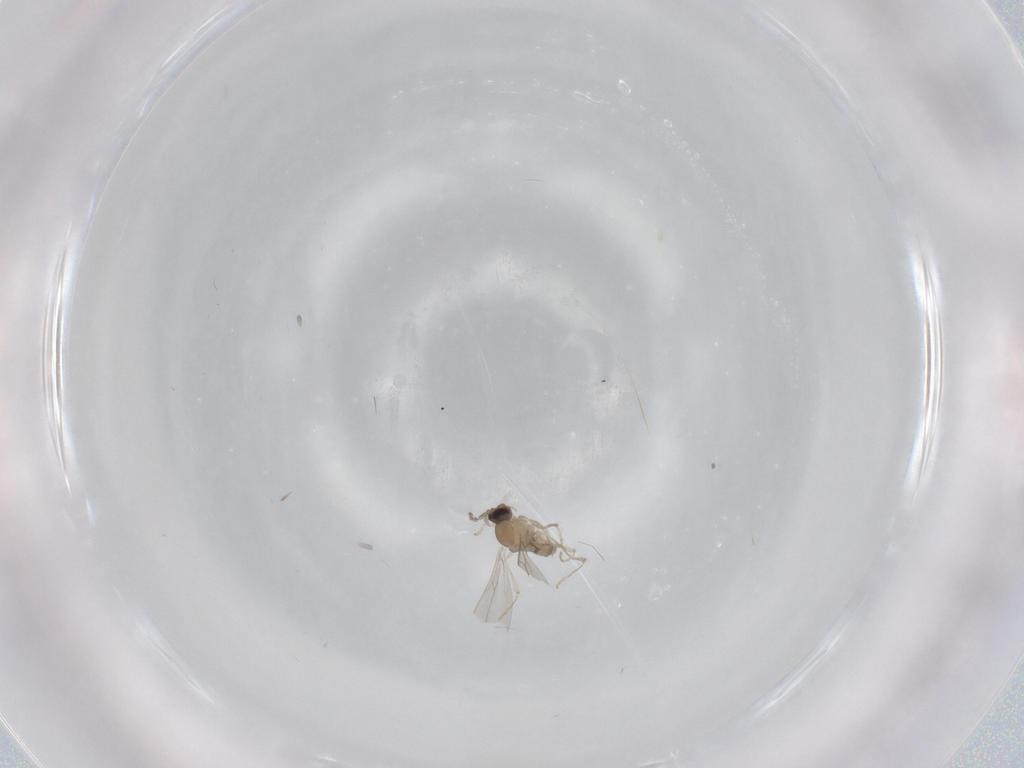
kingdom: Animalia
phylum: Arthropoda
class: Insecta
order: Diptera
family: Cecidomyiidae
